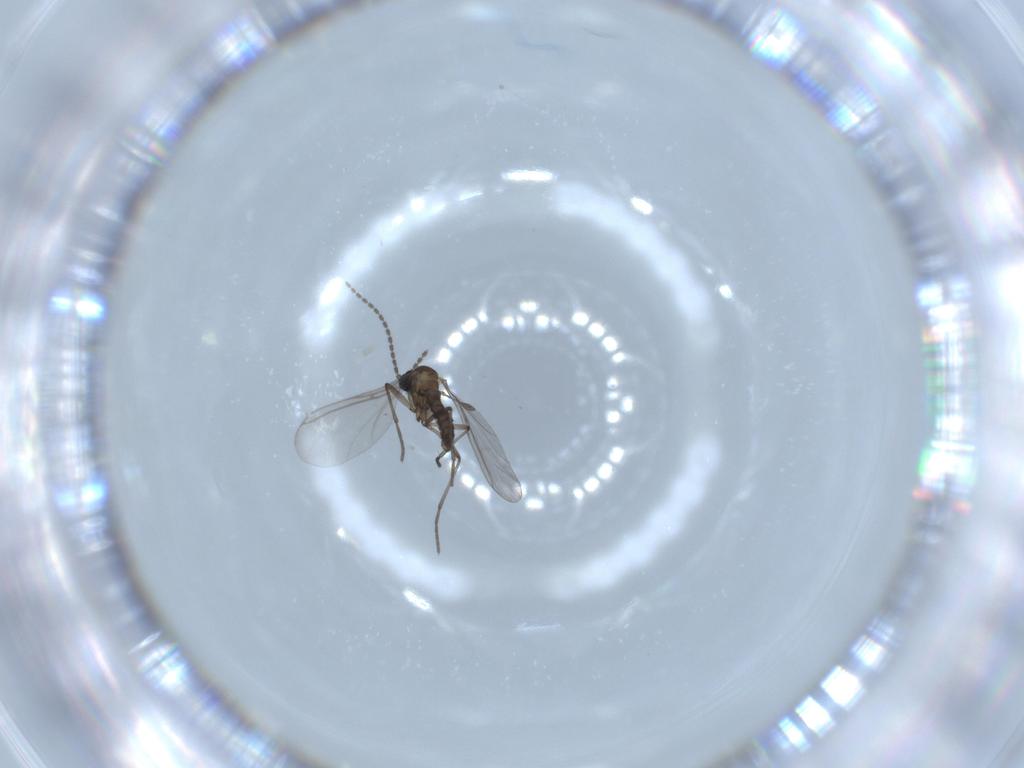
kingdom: Animalia
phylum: Arthropoda
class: Insecta
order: Diptera
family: Sciaridae
